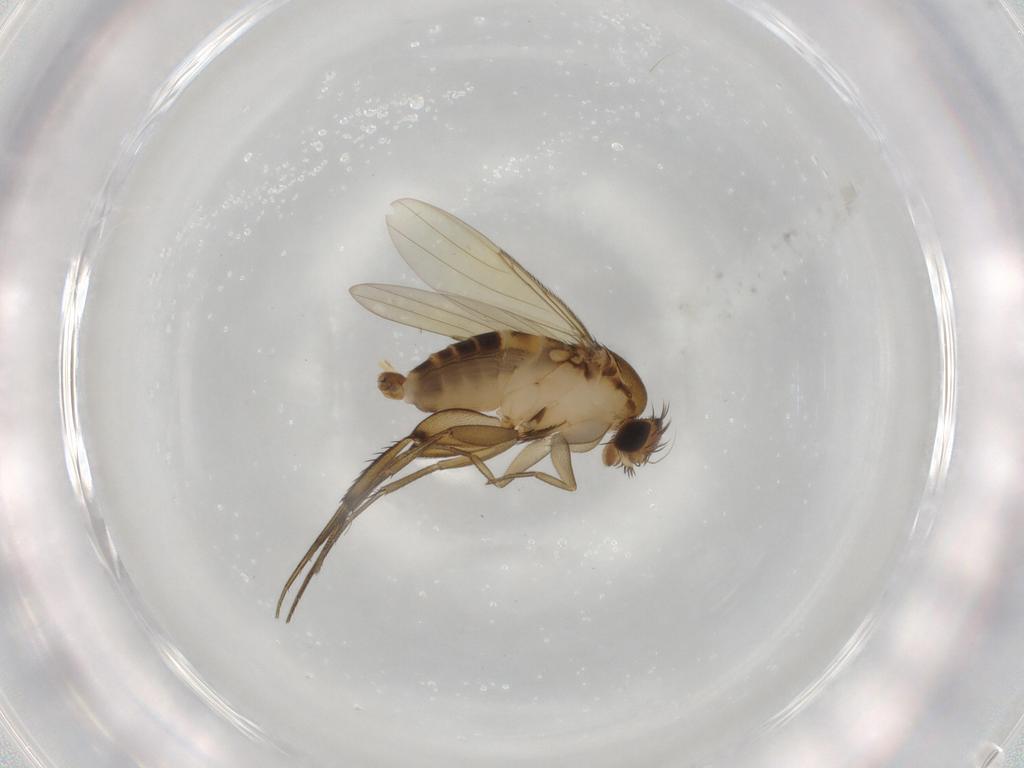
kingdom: Animalia
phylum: Arthropoda
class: Insecta
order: Diptera
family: Phoridae
